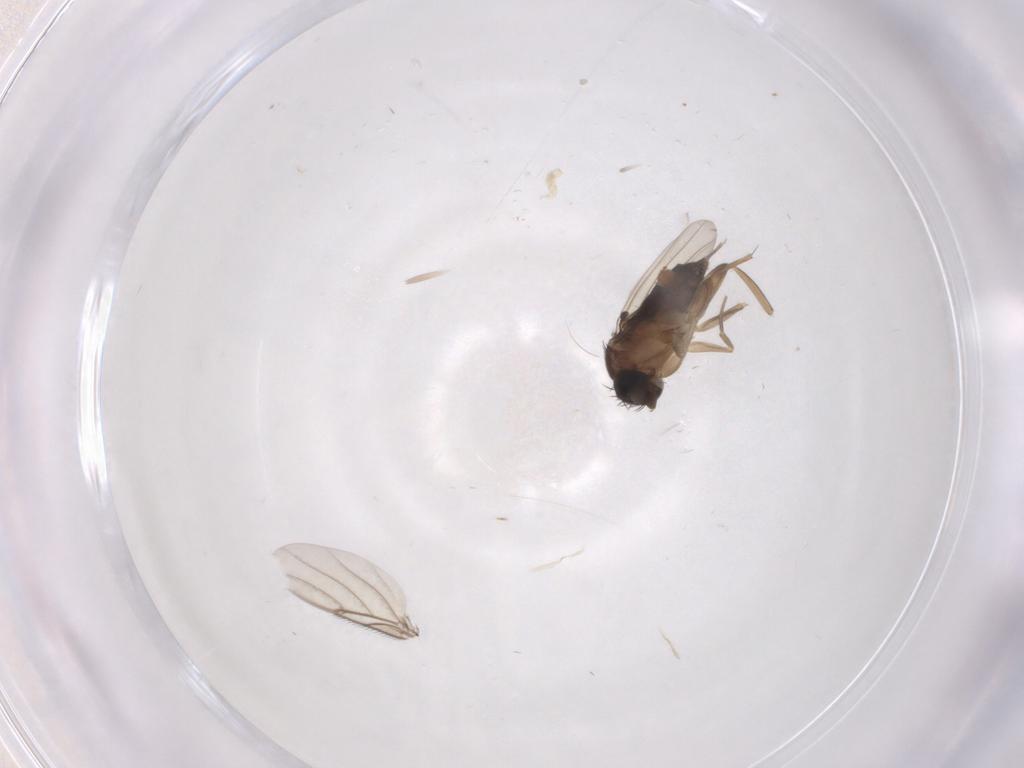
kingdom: Animalia
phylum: Arthropoda
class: Insecta
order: Diptera
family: Phoridae
